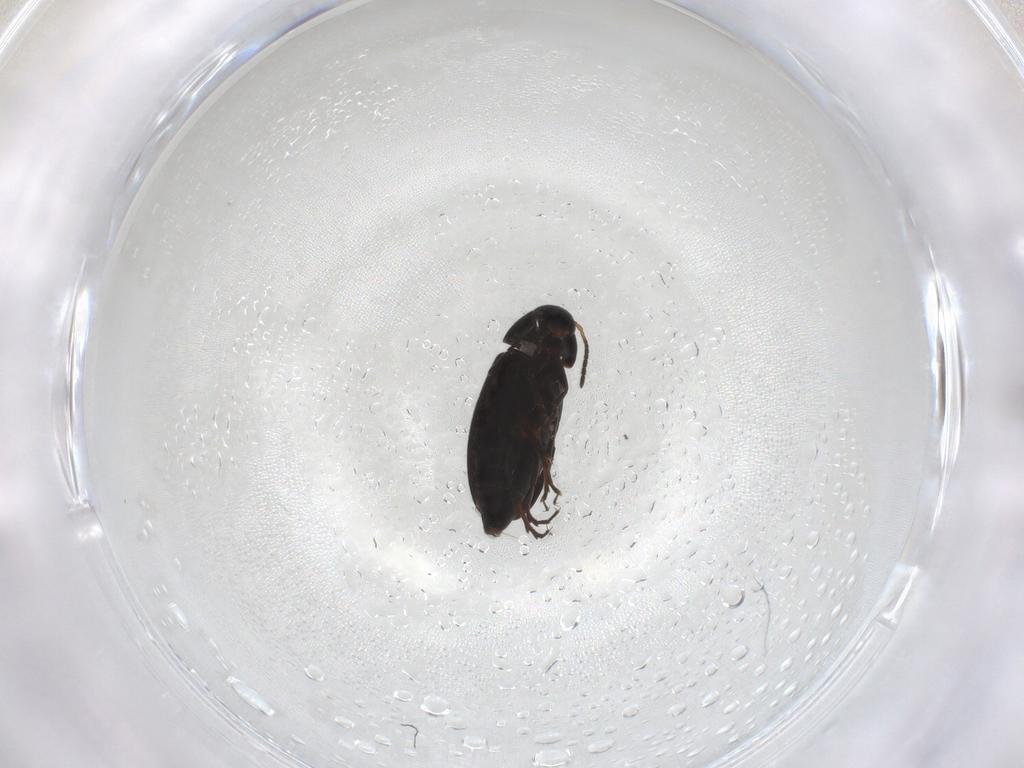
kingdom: Animalia
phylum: Arthropoda
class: Insecta
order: Coleoptera
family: Scraptiidae
